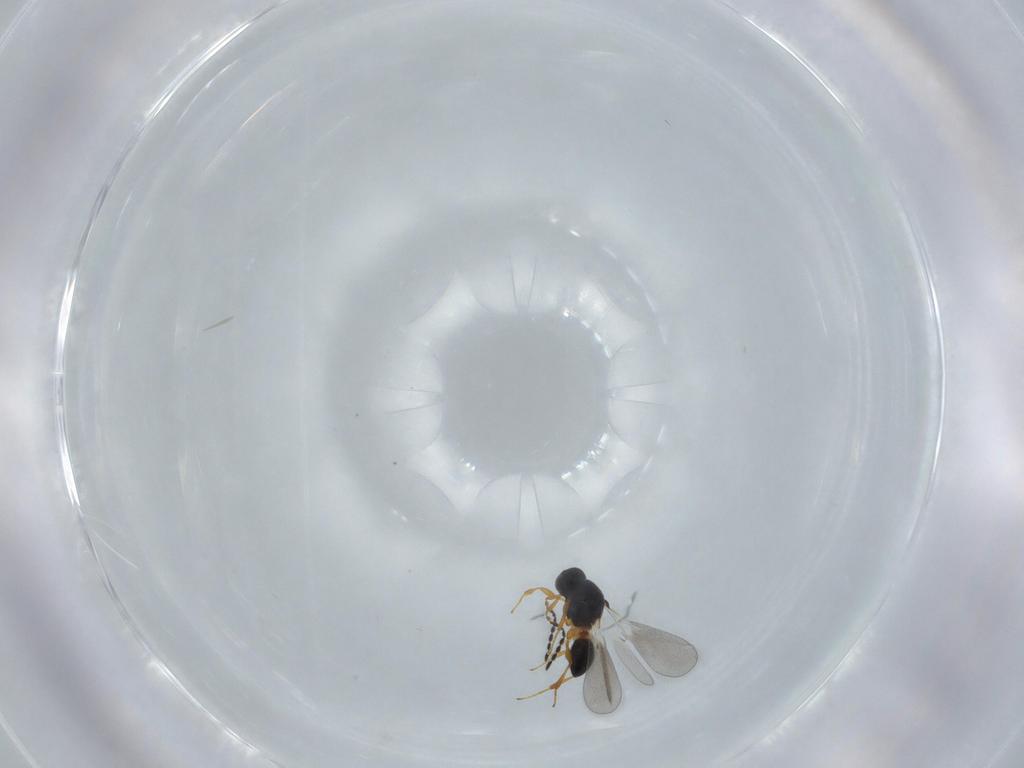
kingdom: Animalia
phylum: Arthropoda
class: Insecta
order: Hymenoptera
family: Platygastridae
